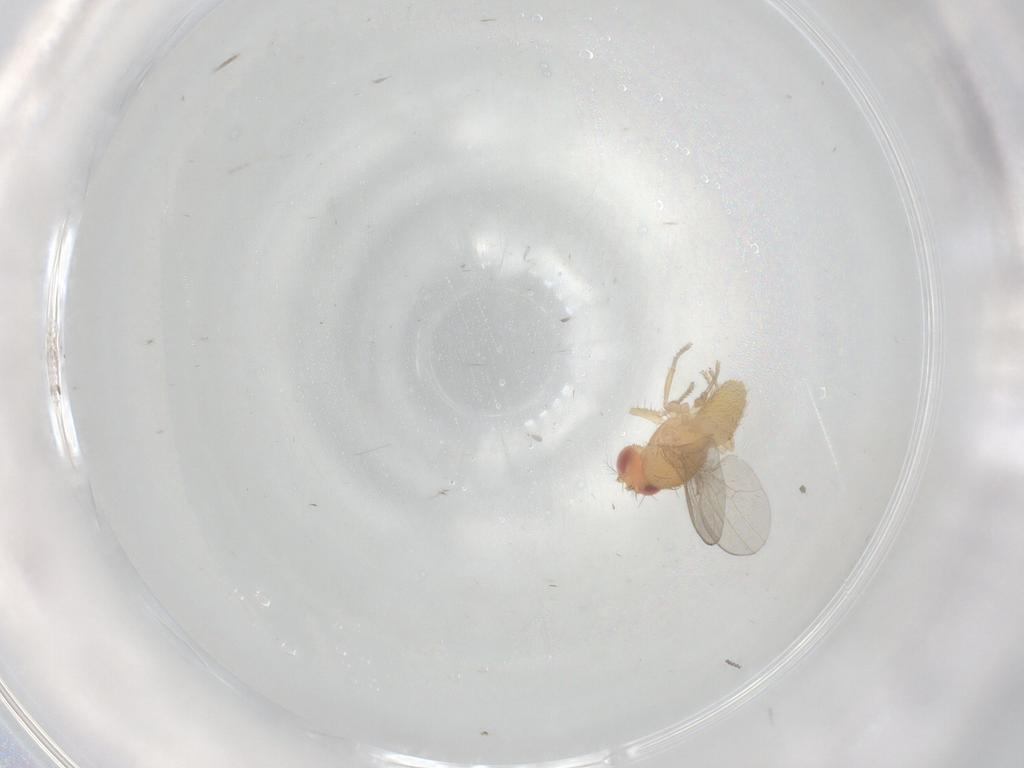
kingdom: Animalia
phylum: Arthropoda
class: Insecta
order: Diptera
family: Drosophilidae
